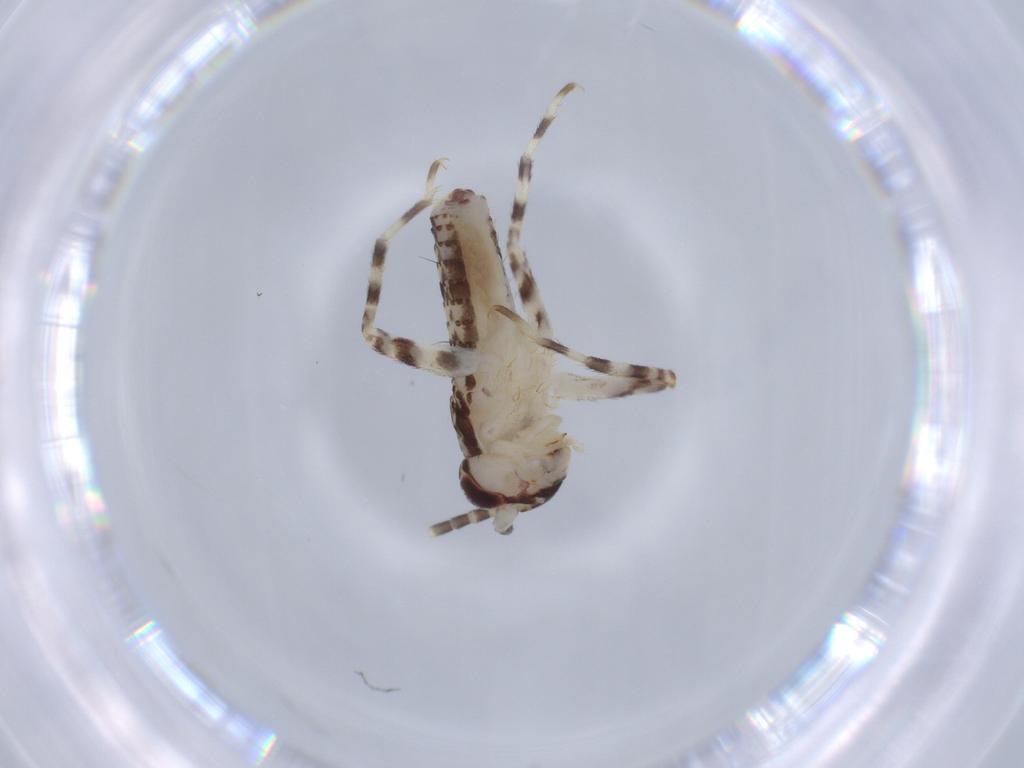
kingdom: Animalia
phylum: Arthropoda
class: Insecta
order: Orthoptera
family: Gryllidae
